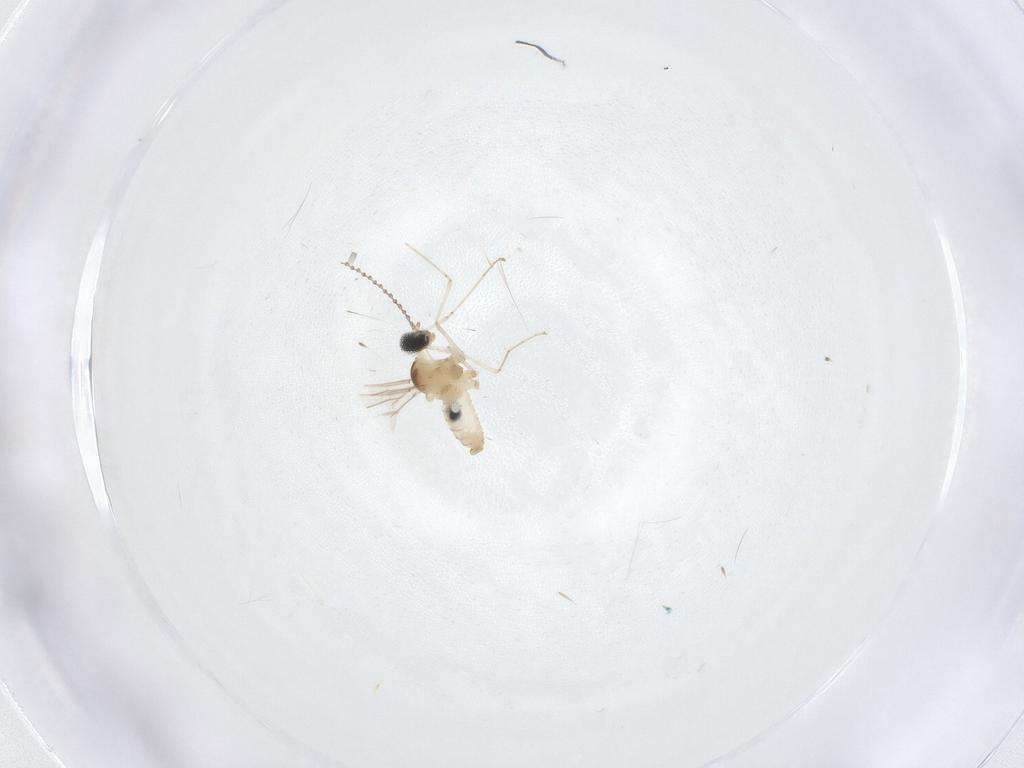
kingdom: Animalia
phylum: Arthropoda
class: Insecta
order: Diptera
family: Cecidomyiidae
